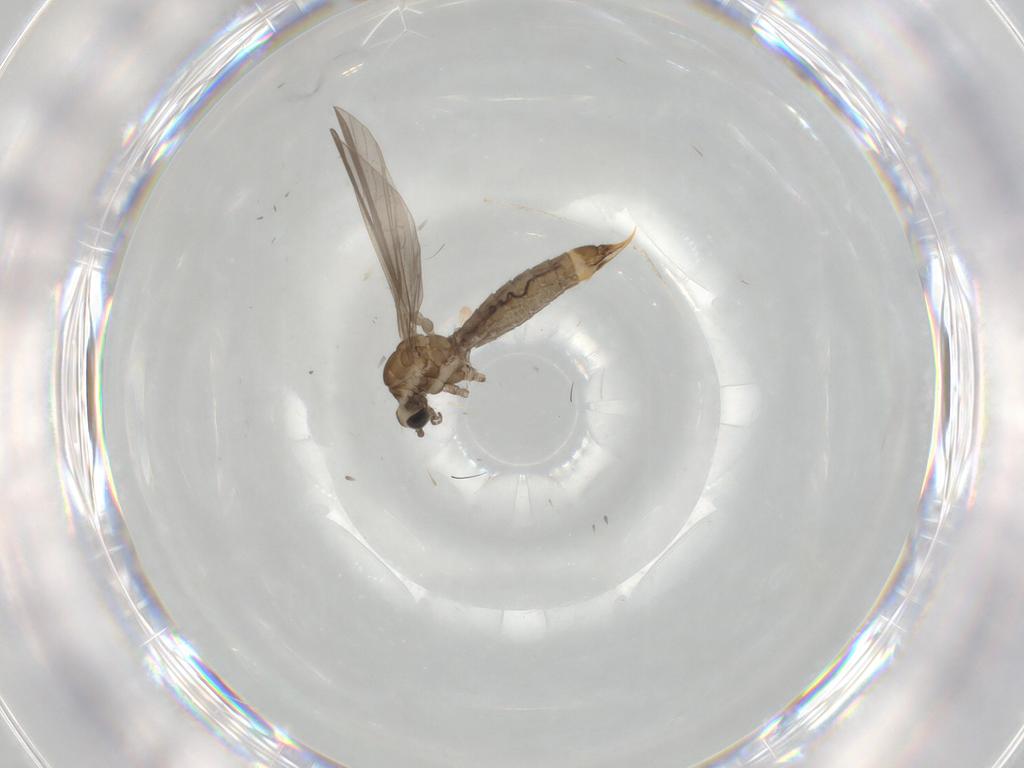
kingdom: Animalia
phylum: Arthropoda
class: Insecta
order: Diptera
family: Limoniidae
